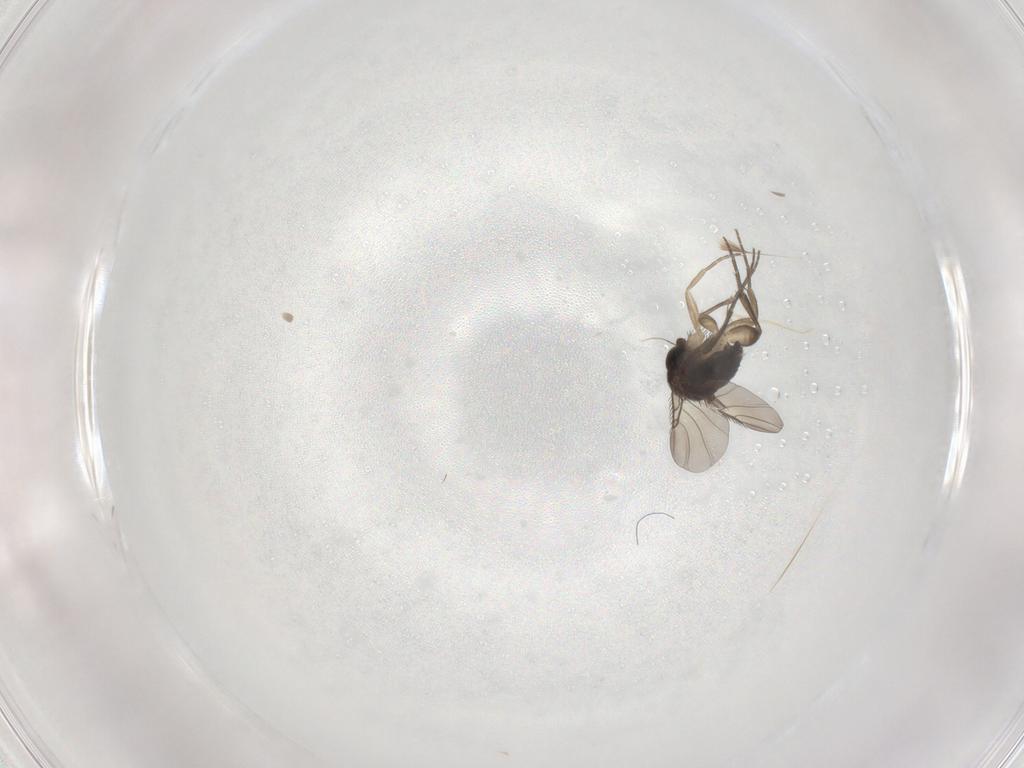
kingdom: Animalia
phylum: Arthropoda
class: Insecta
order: Diptera
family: Phoridae
